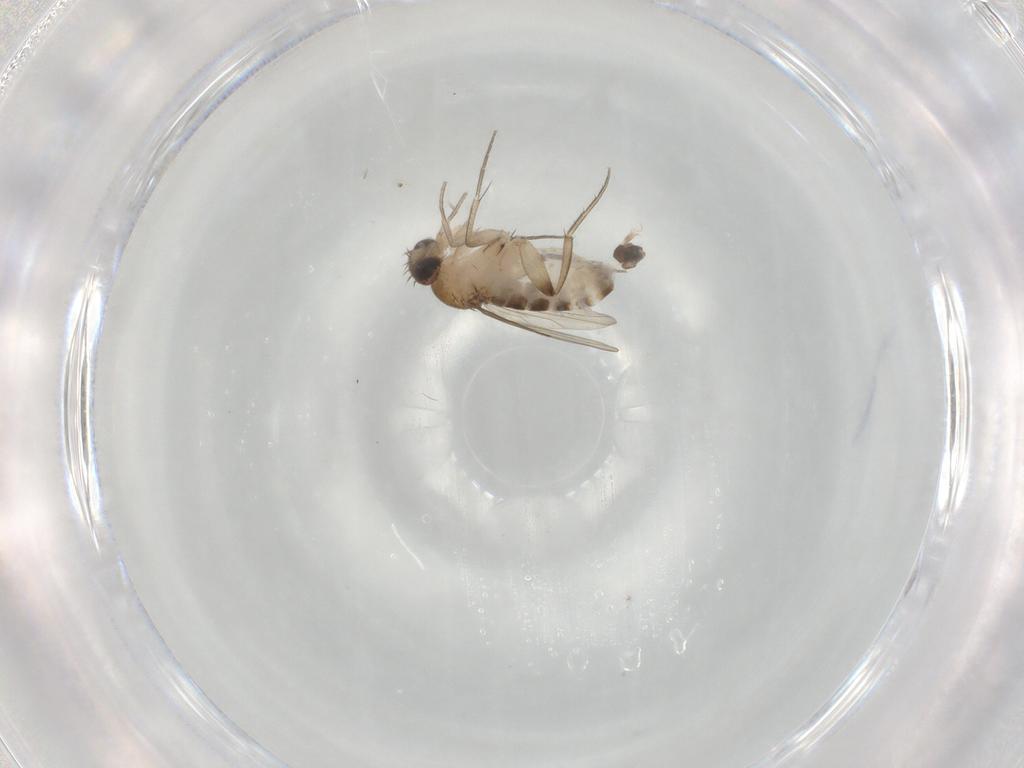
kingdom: Animalia
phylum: Arthropoda
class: Insecta
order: Diptera
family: Phoridae
